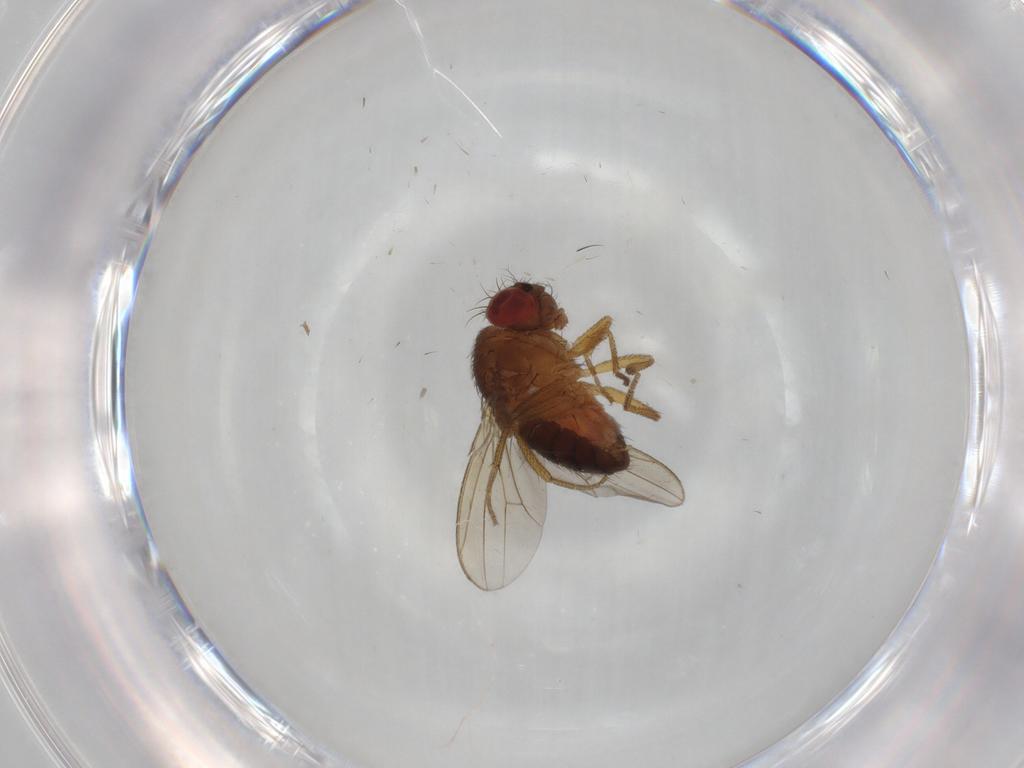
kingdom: Animalia
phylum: Arthropoda
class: Insecta
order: Diptera
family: Drosophilidae
